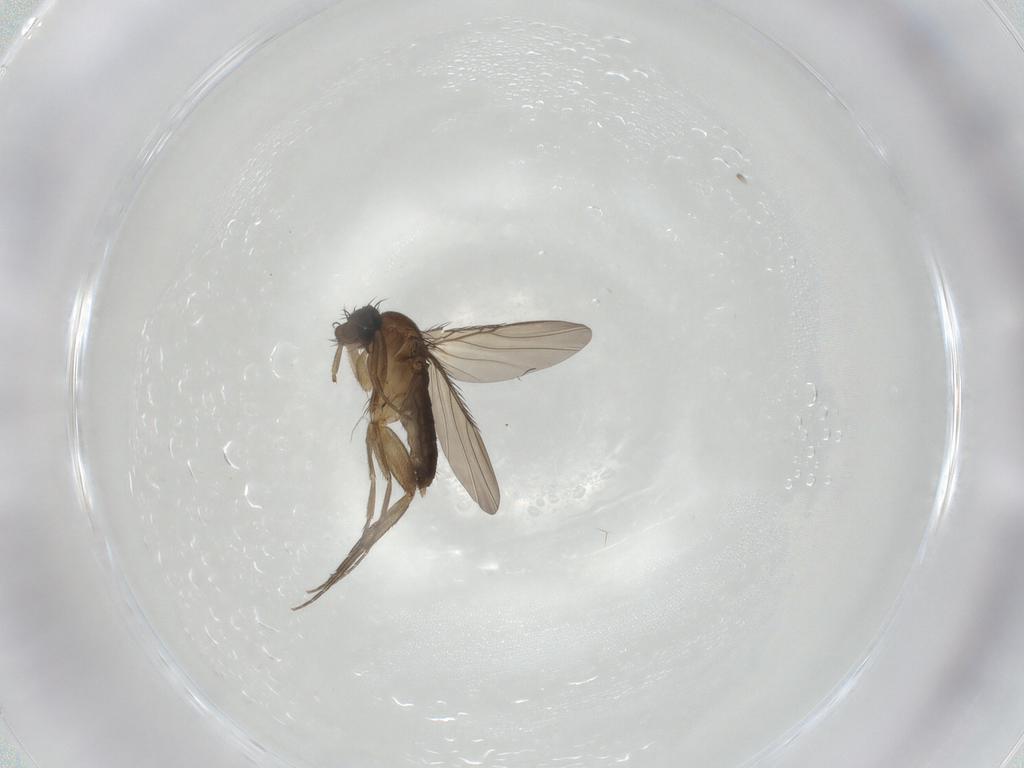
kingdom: Animalia
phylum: Arthropoda
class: Insecta
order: Diptera
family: Phoridae
